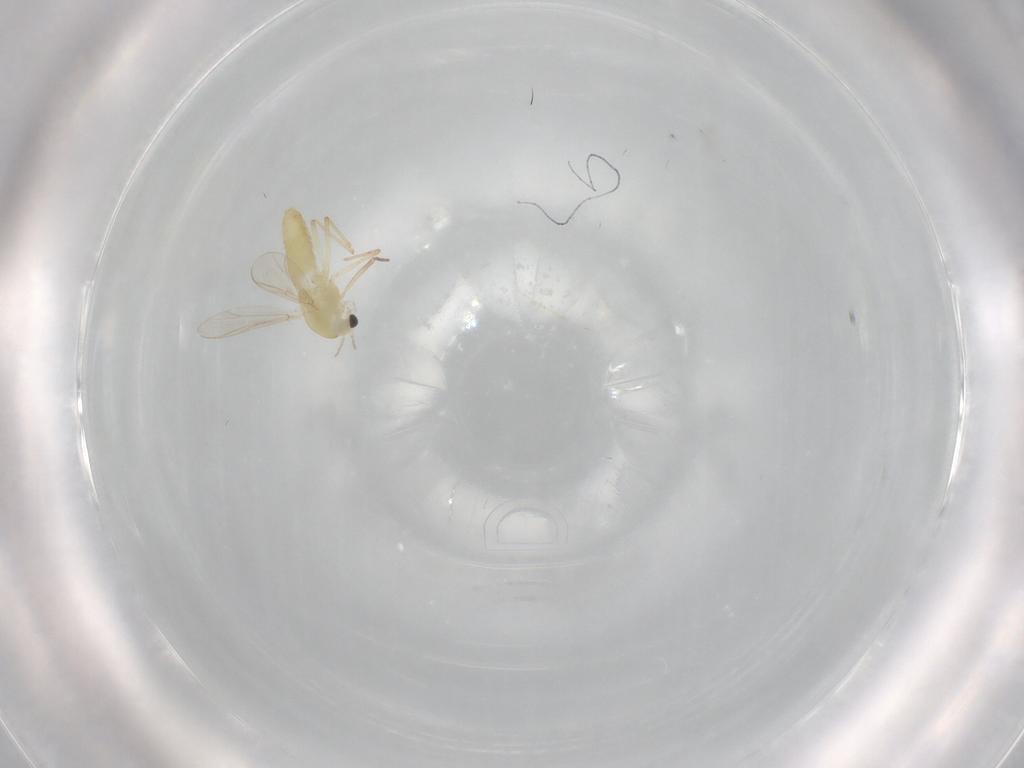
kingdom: Animalia
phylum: Arthropoda
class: Insecta
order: Diptera
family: Chironomidae
